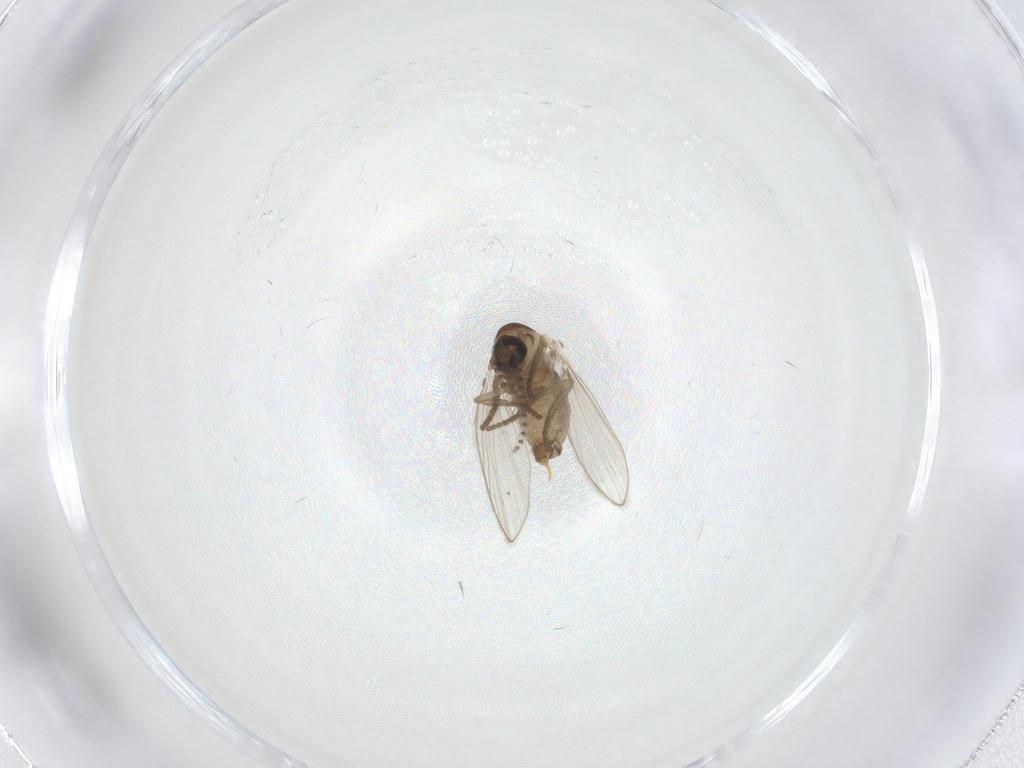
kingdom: Animalia
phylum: Arthropoda
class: Insecta
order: Diptera
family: Psychodidae
